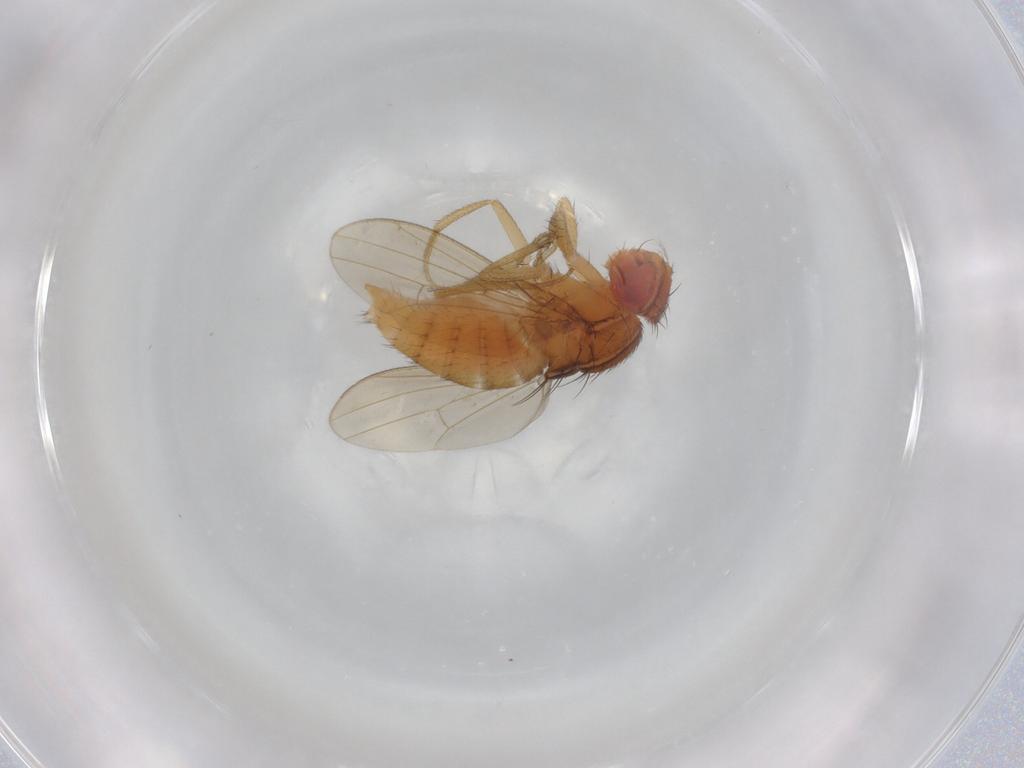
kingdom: Animalia
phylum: Arthropoda
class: Insecta
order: Diptera
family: Drosophilidae
